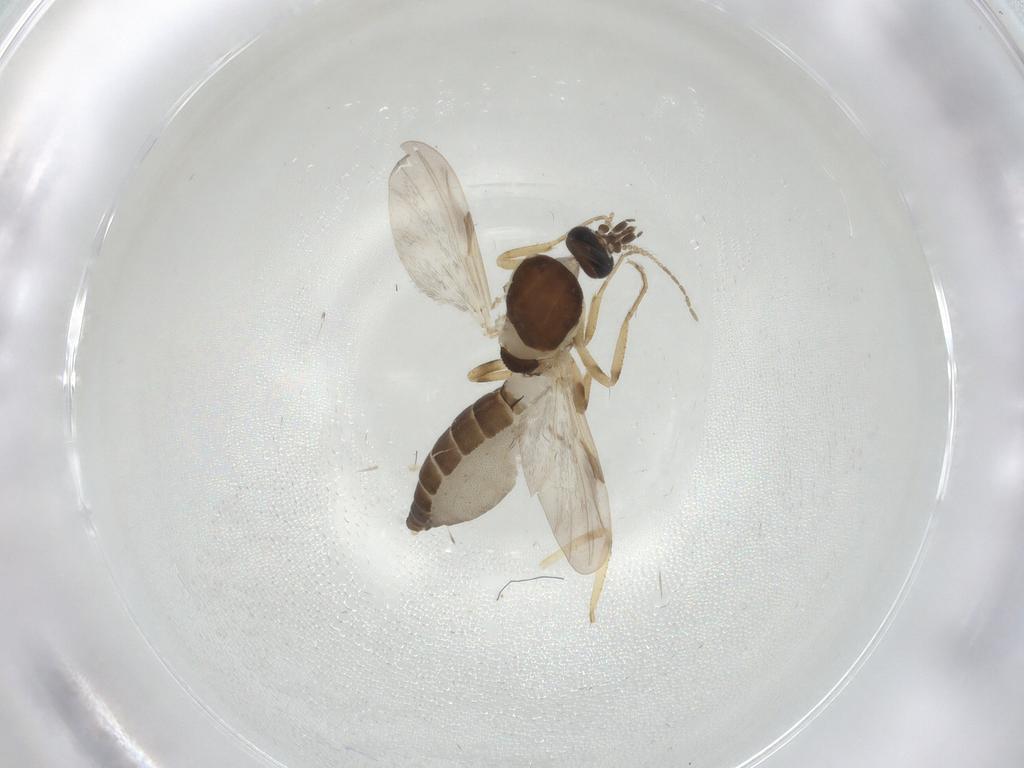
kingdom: Animalia
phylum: Arthropoda
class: Insecta
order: Diptera
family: Ceratopogonidae
